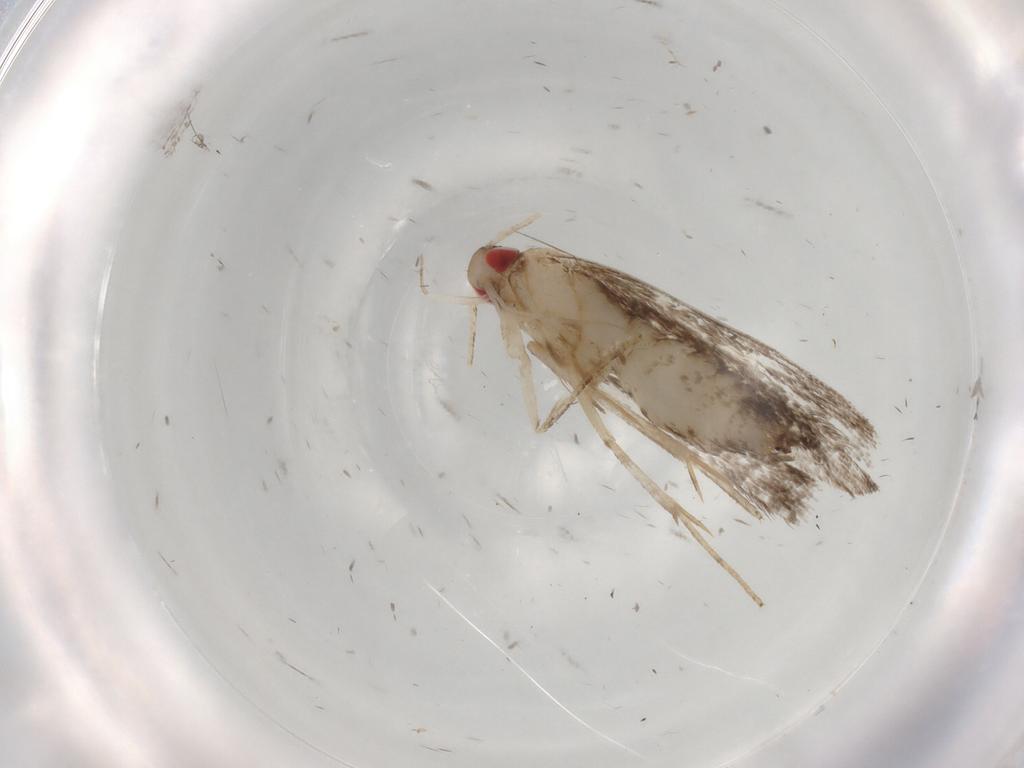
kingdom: Animalia
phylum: Arthropoda
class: Insecta
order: Lepidoptera
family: Gelechiidae
